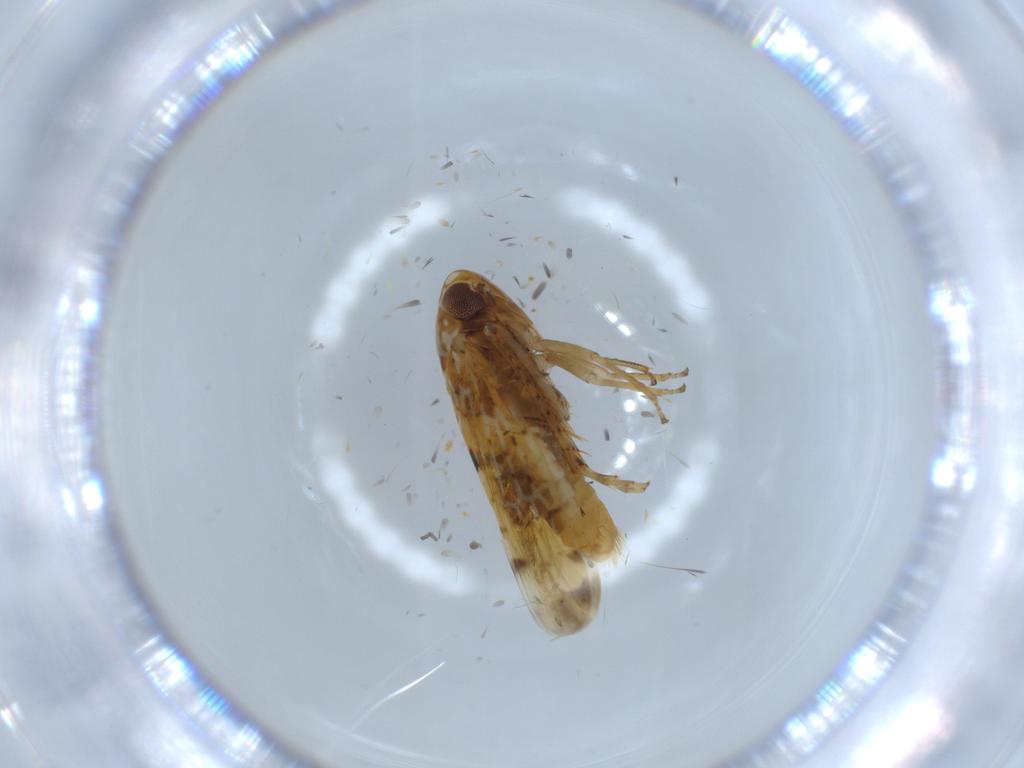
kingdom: Animalia
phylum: Arthropoda
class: Insecta
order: Hemiptera
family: Cicadellidae
